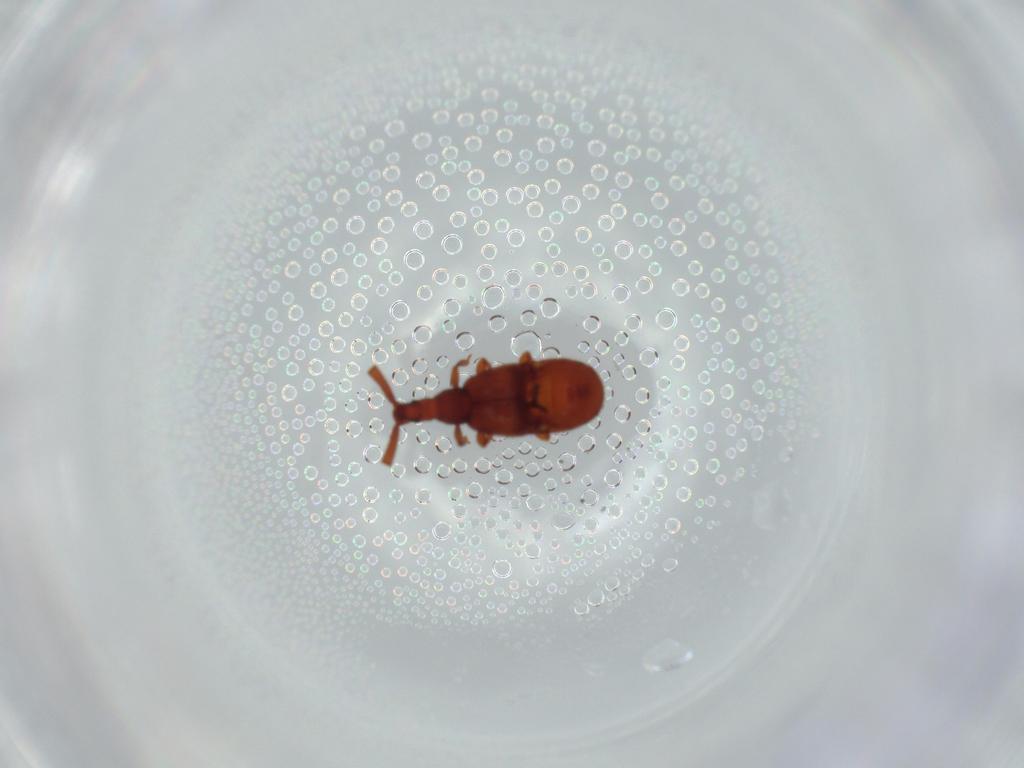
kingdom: Animalia
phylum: Arthropoda
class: Insecta
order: Coleoptera
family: Staphylinidae
